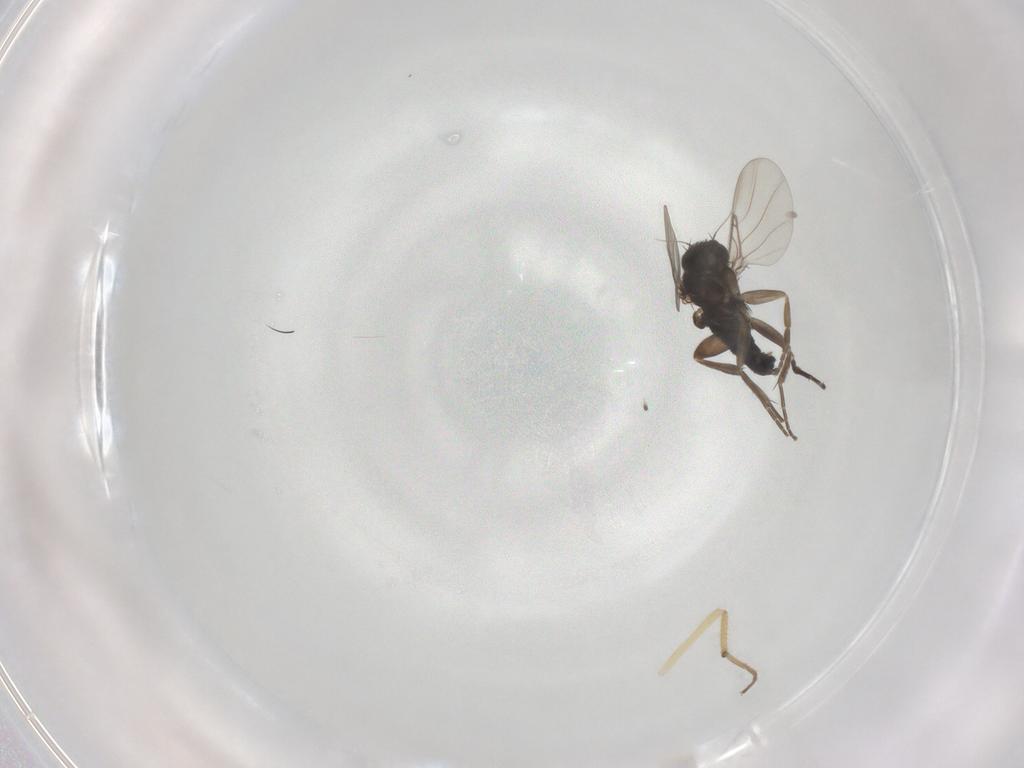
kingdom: Animalia
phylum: Arthropoda
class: Insecta
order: Diptera
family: Phoridae
